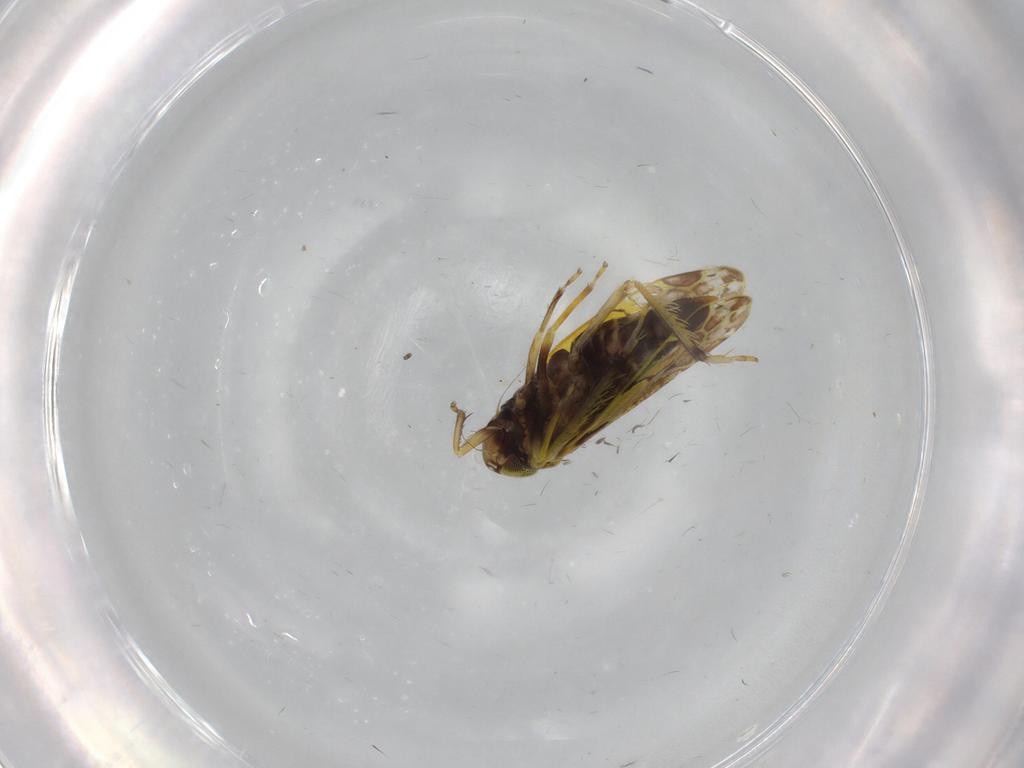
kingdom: Animalia
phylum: Arthropoda
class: Insecta
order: Hemiptera
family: Cicadellidae
